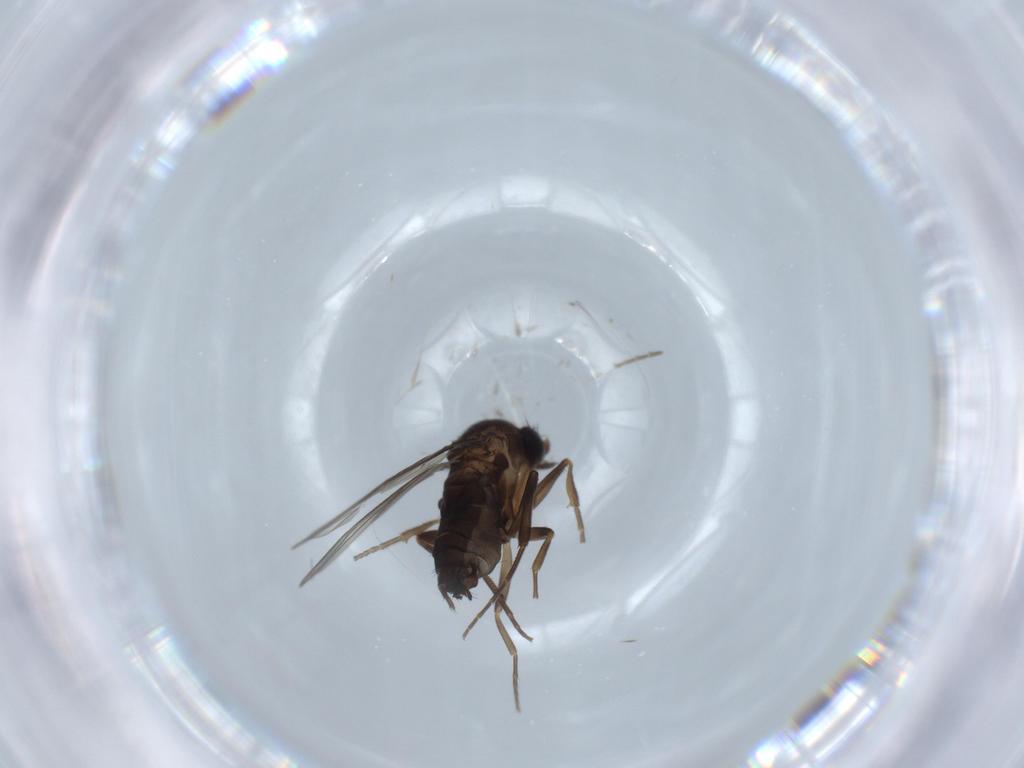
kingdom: Animalia
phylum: Arthropoda
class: Insecta
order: Diptera
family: Tabanidae
